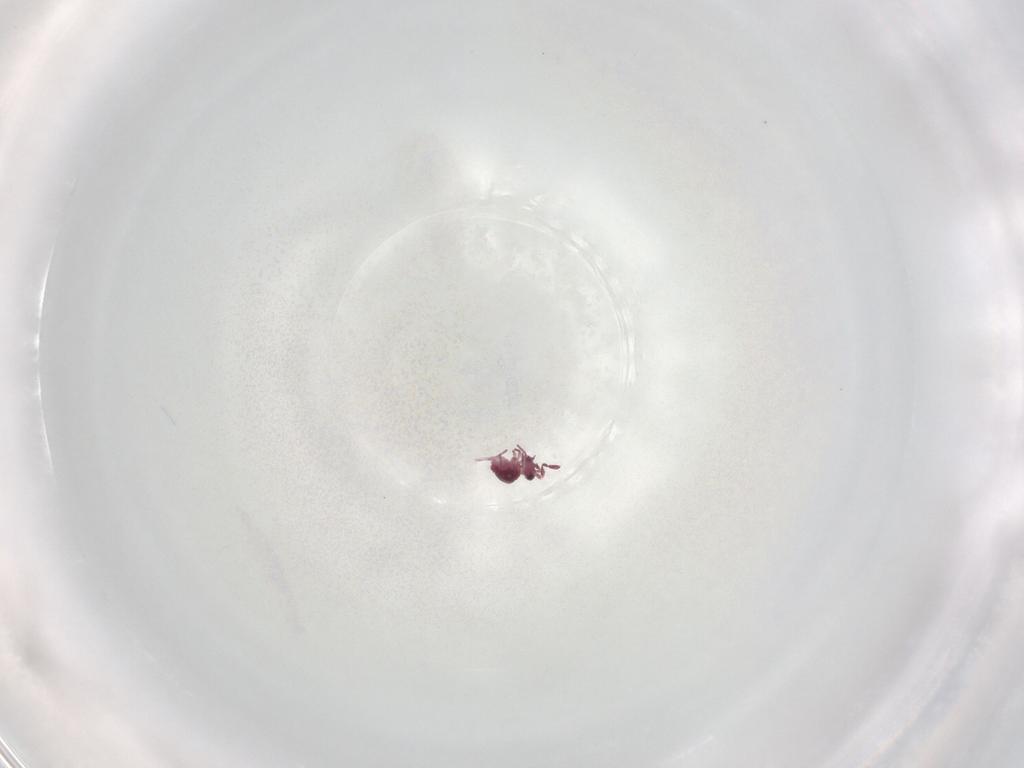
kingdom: Animalia
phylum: Arthropoda
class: Collembola
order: Symphypleona
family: Sminthurididae
